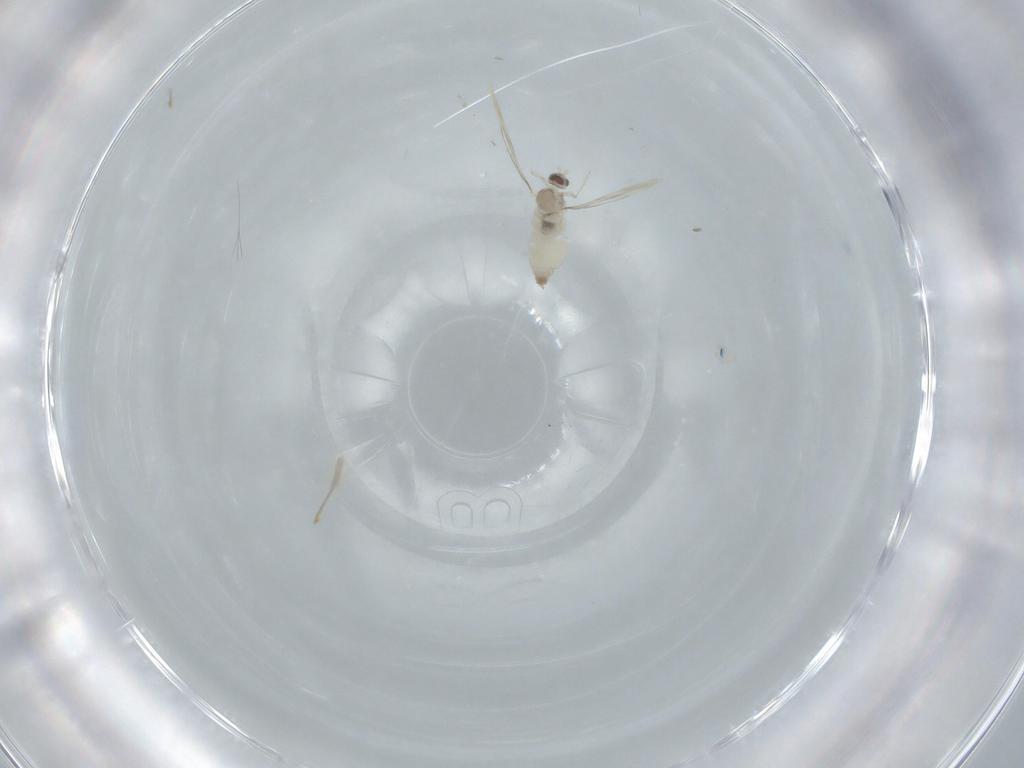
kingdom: Animalia
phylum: Arthropoda
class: Insecta
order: Diptera
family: Cecidomyiidae
